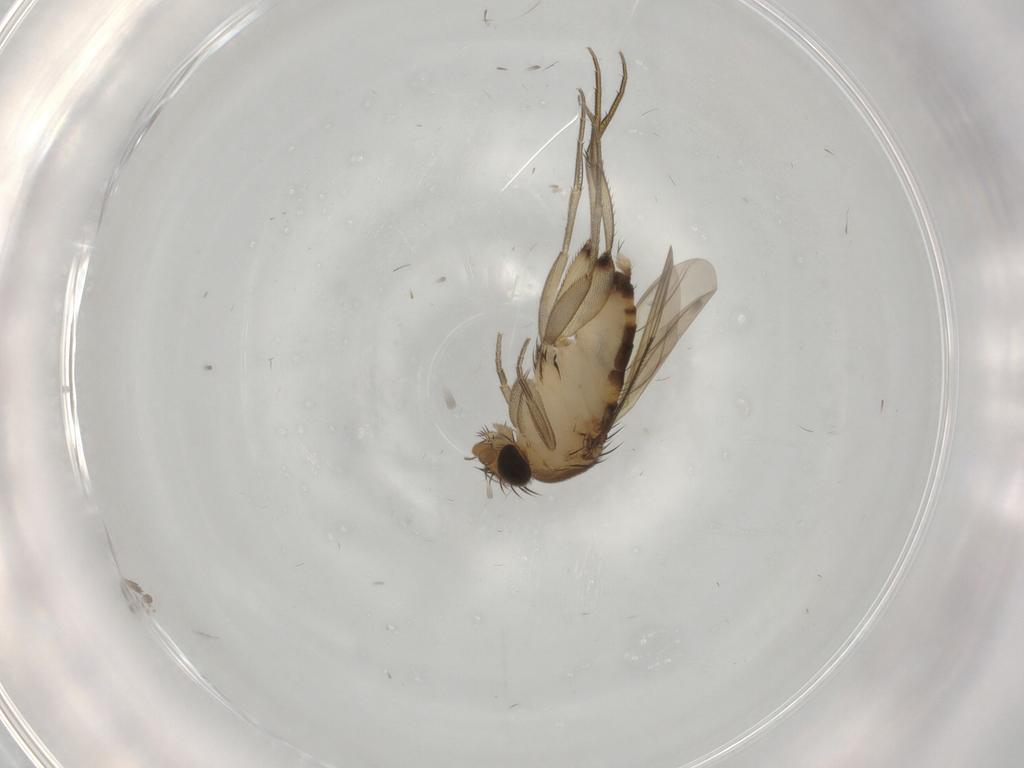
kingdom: Animalia
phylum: Arthropoda
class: Insecta
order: Diptera
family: Phoridae
